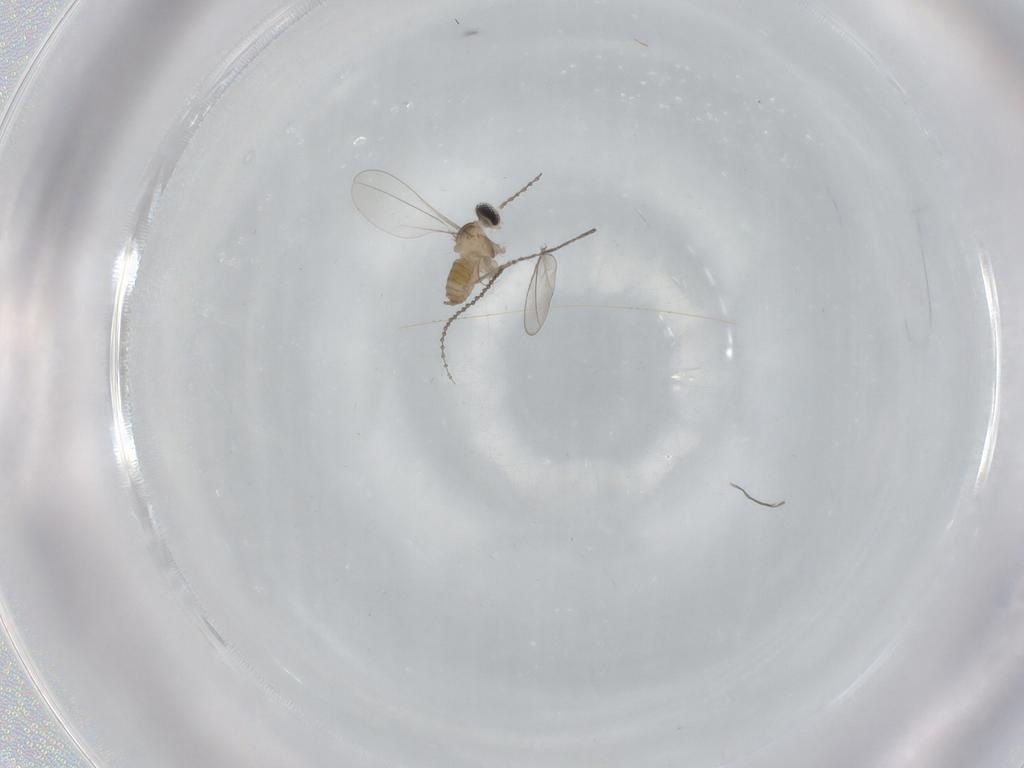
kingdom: Animalia
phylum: Arthropoda
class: Insecta
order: Diptera
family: Cecidomyiidae
